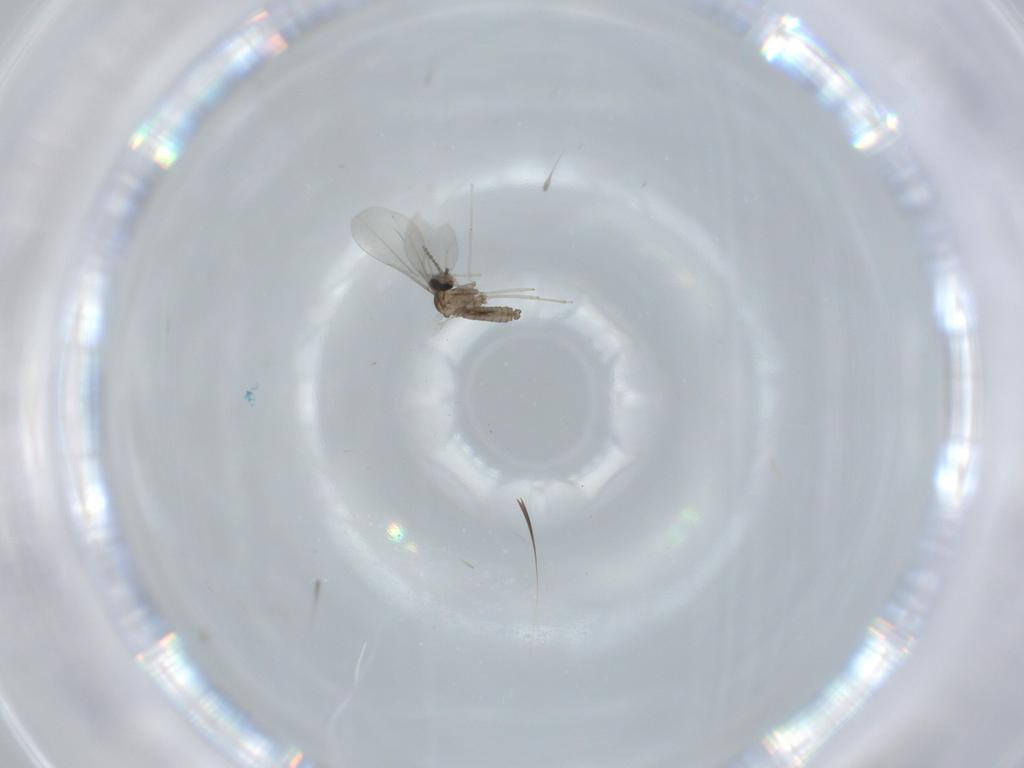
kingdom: Animalia
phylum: Arthropoda
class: Insecta
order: Diptera
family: Cecidomyiidae
